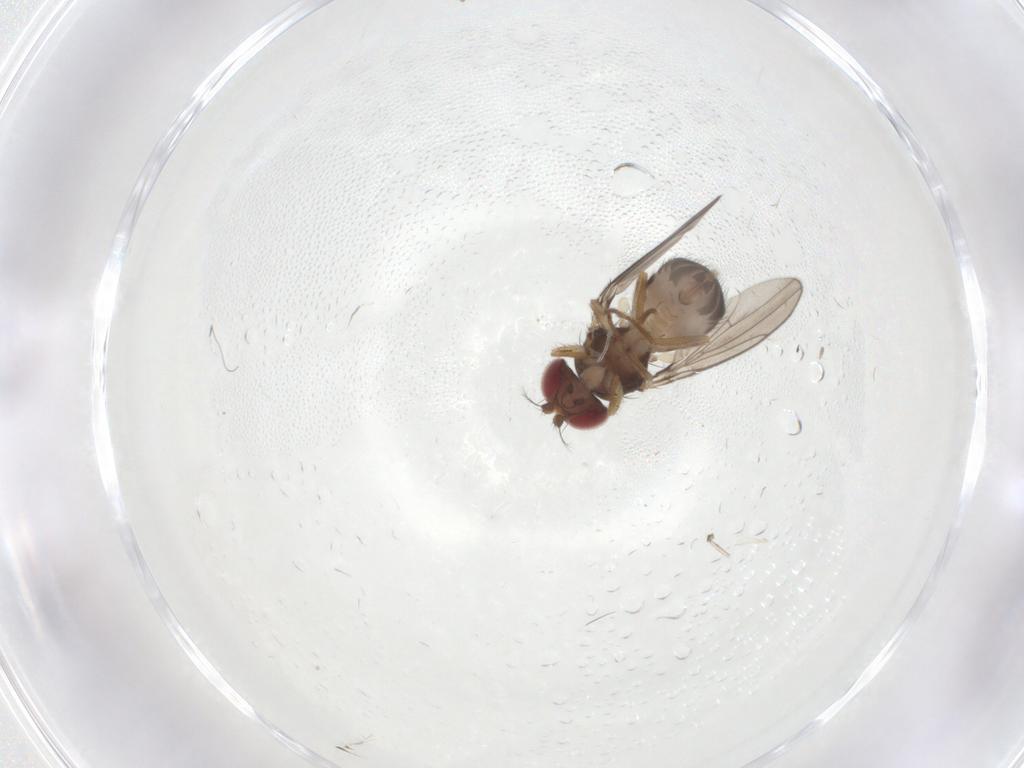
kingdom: Animalia
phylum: Arthropoda
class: Insecta
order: Diptera
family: Drosophilidae
